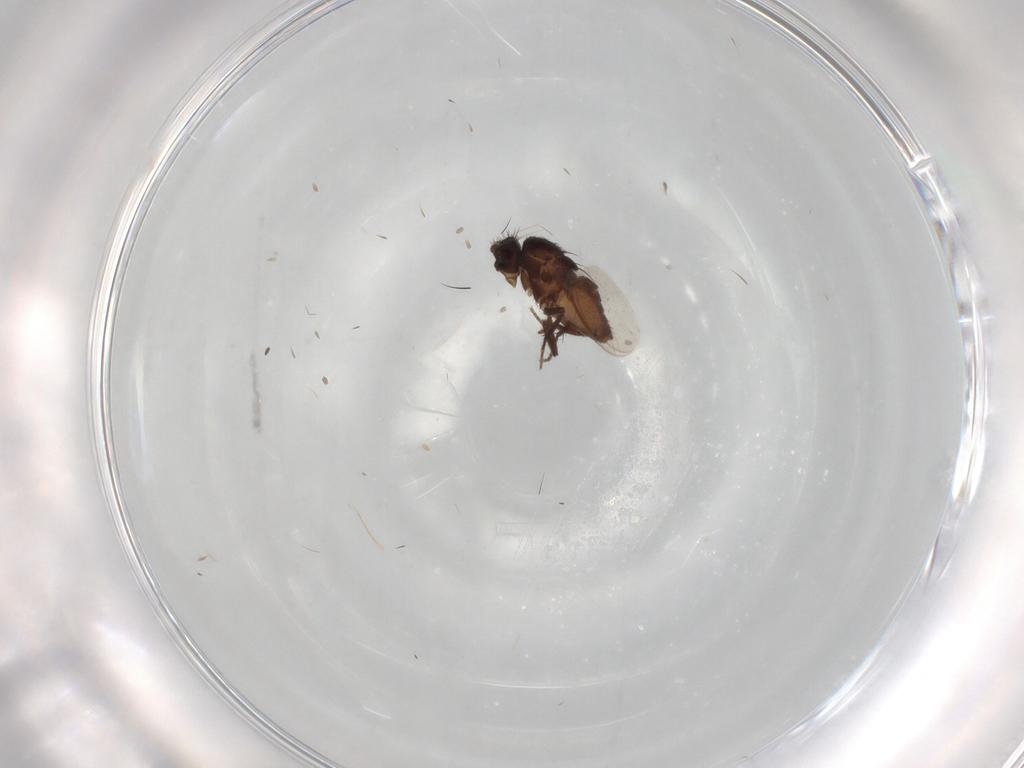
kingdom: Animalia
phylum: Arthropoda
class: Insecta
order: Diptera
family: Sphaeroceridae
